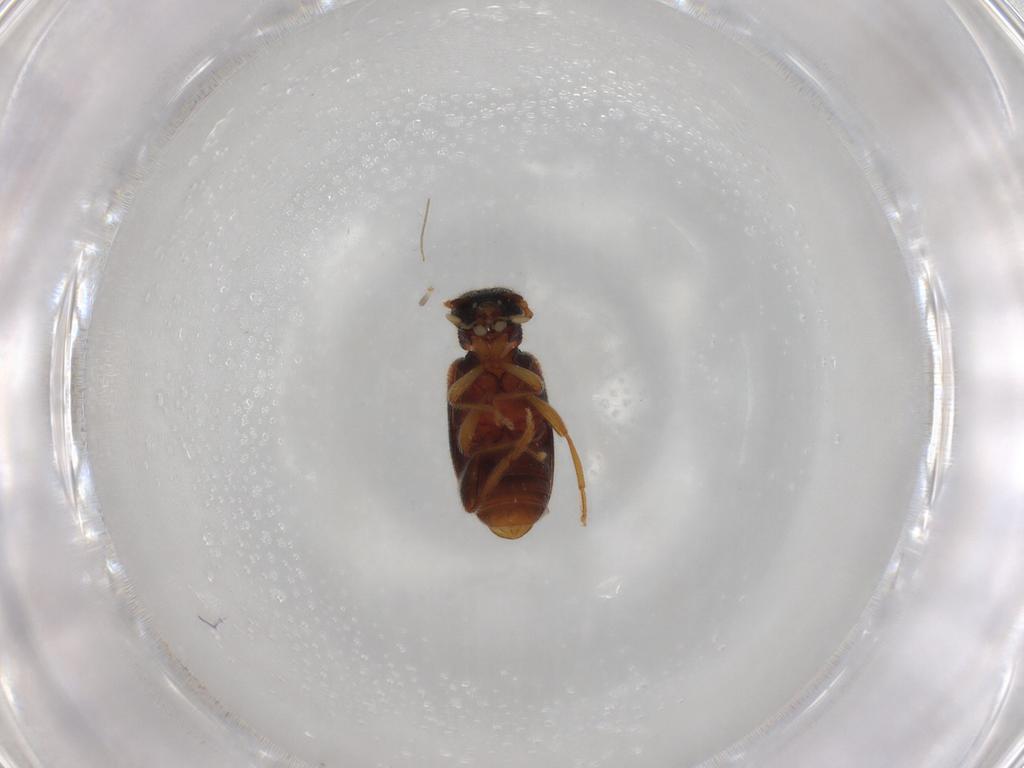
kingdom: Animalia
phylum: Arthropoda
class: Insecta
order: Coleoptera
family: Aderidae
